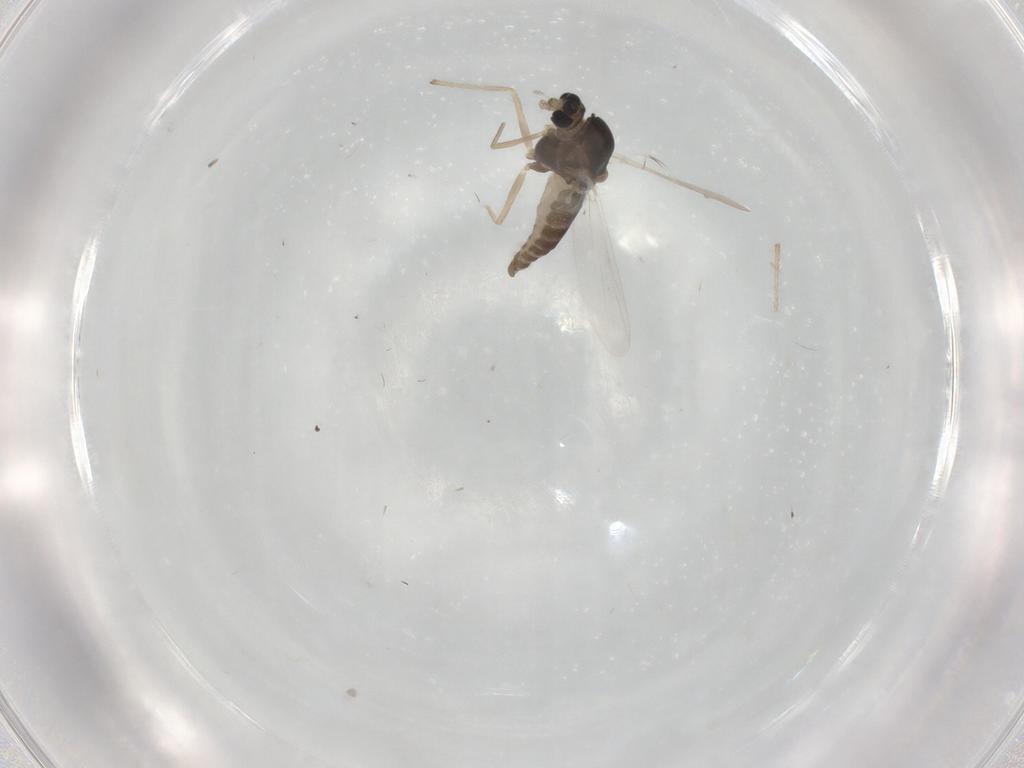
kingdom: Animalia
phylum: Arthropoda
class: Insecta
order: Diptera
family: Chironomidae
